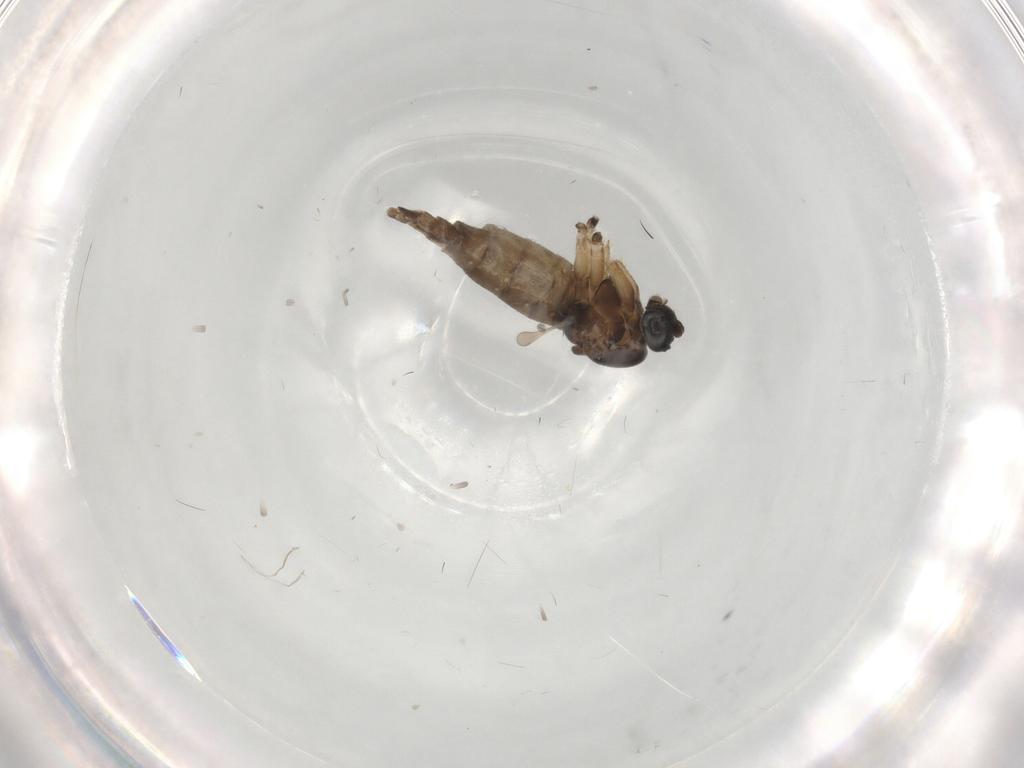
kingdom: Animalia
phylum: Arthropoda
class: Insecta
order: Diptera
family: Sciaridae
